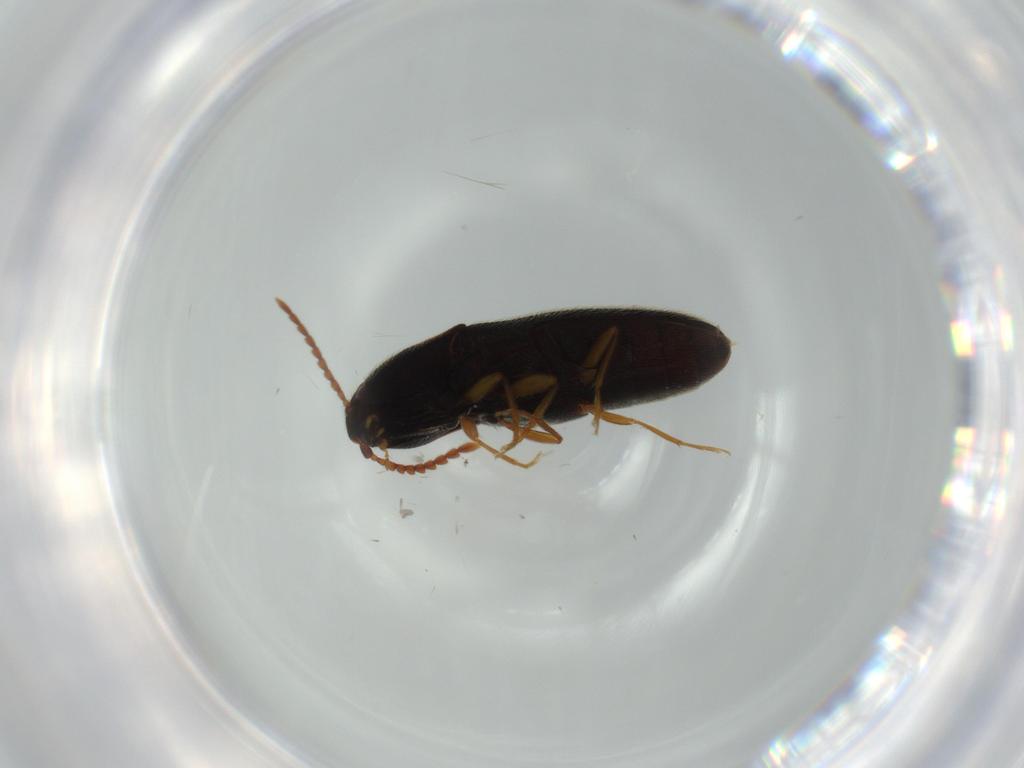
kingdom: Animalia
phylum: Arthropoda
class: Insecta
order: Coleoptera
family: Elateridae
